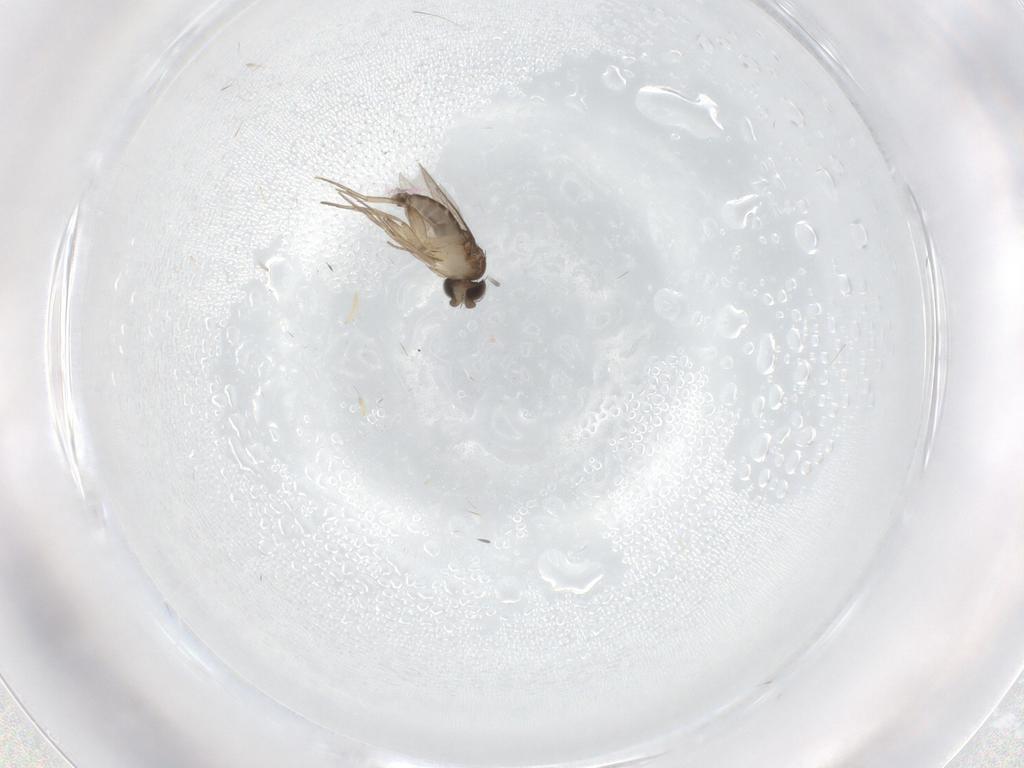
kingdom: Animalia
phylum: Arthropoda
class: Insecta
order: Diptera
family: Phoridae
